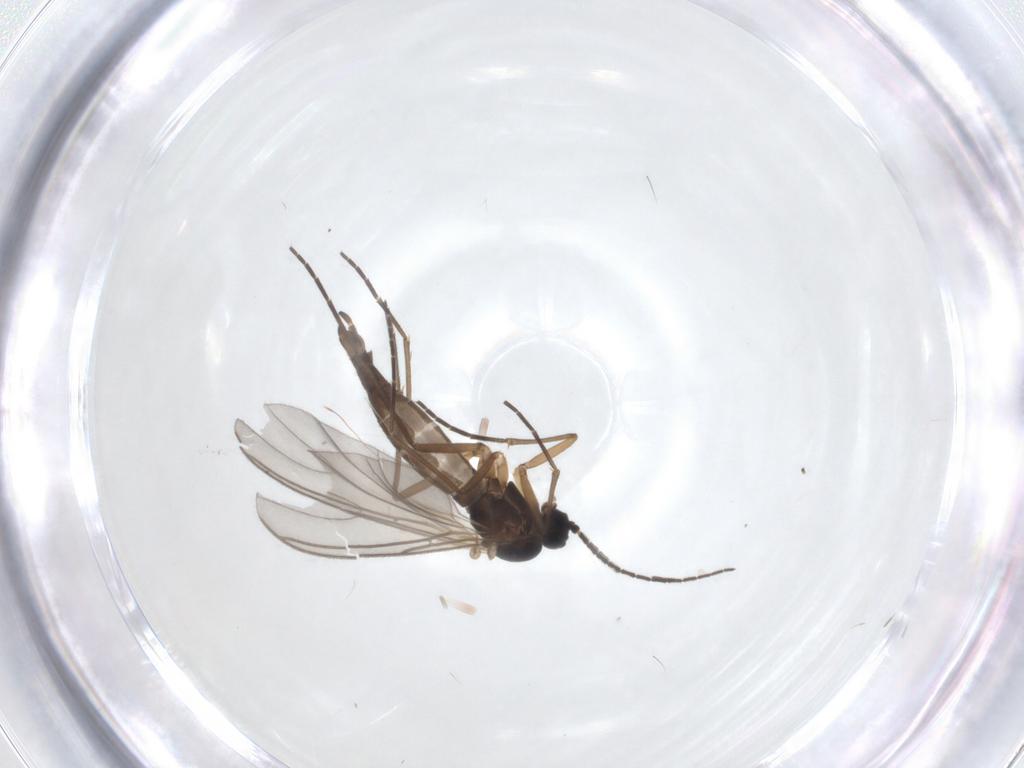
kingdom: Animalia
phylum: Arthropoda
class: Insecta
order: Diptera
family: Sciaridae
